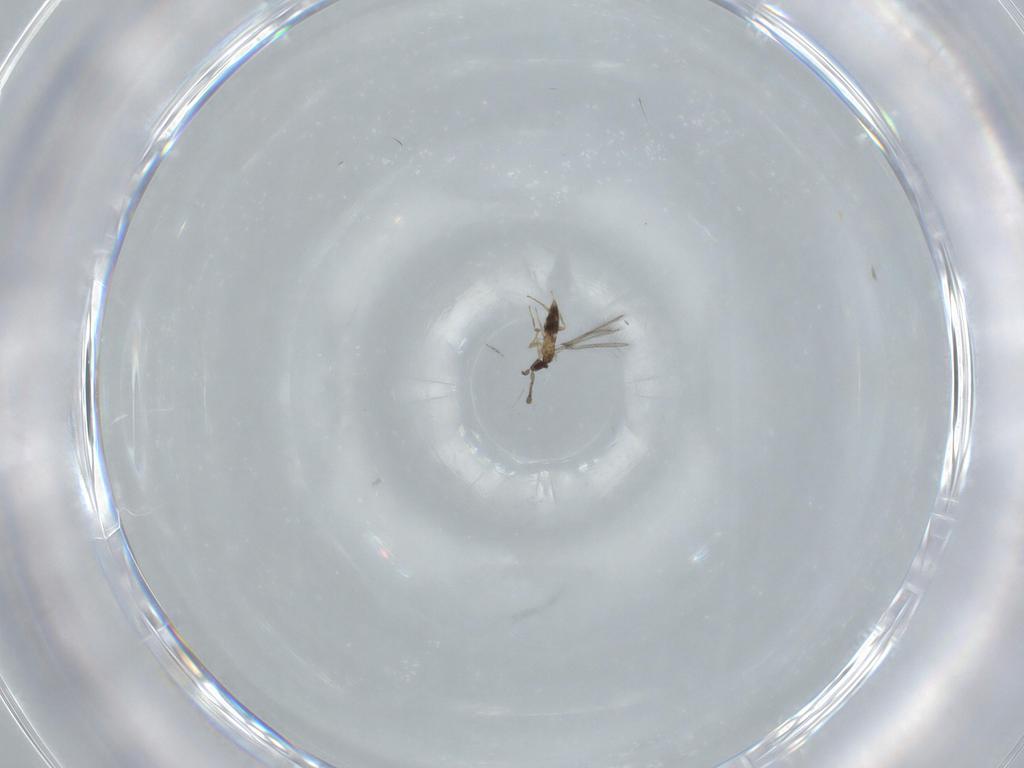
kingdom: Animalia
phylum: Arthropoda
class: Insecta
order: Hymenoptera
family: Mymaridae
